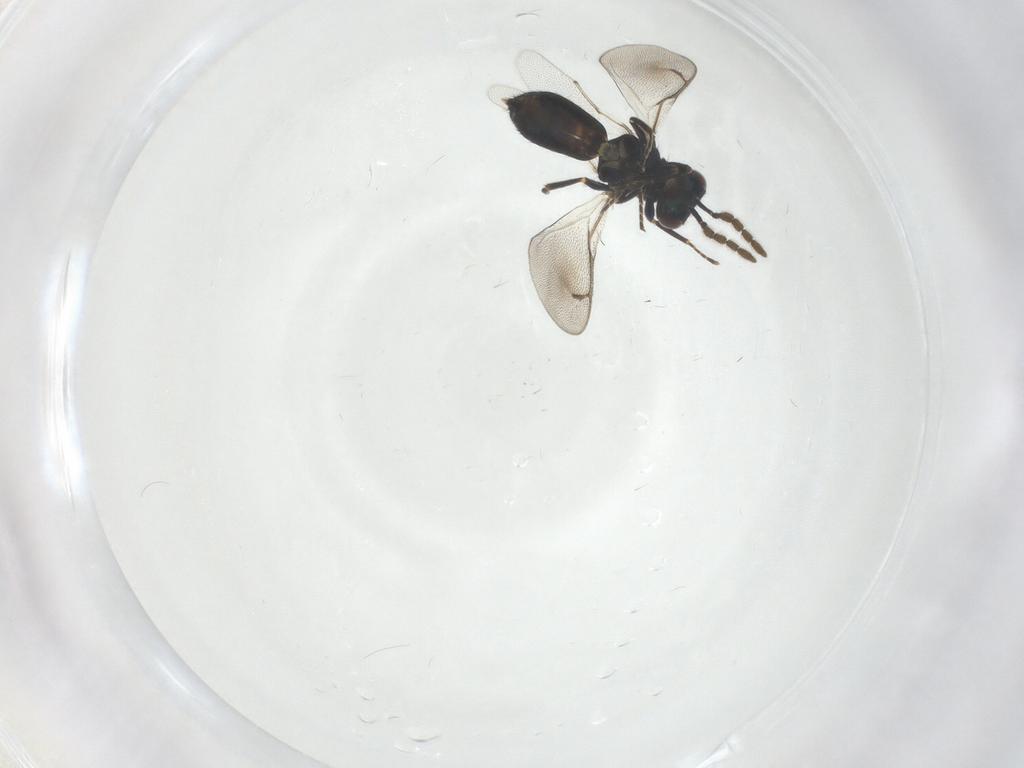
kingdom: Animalia
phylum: Arthropoda
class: Insecta
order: Hymenoptera
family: Eulophidae
